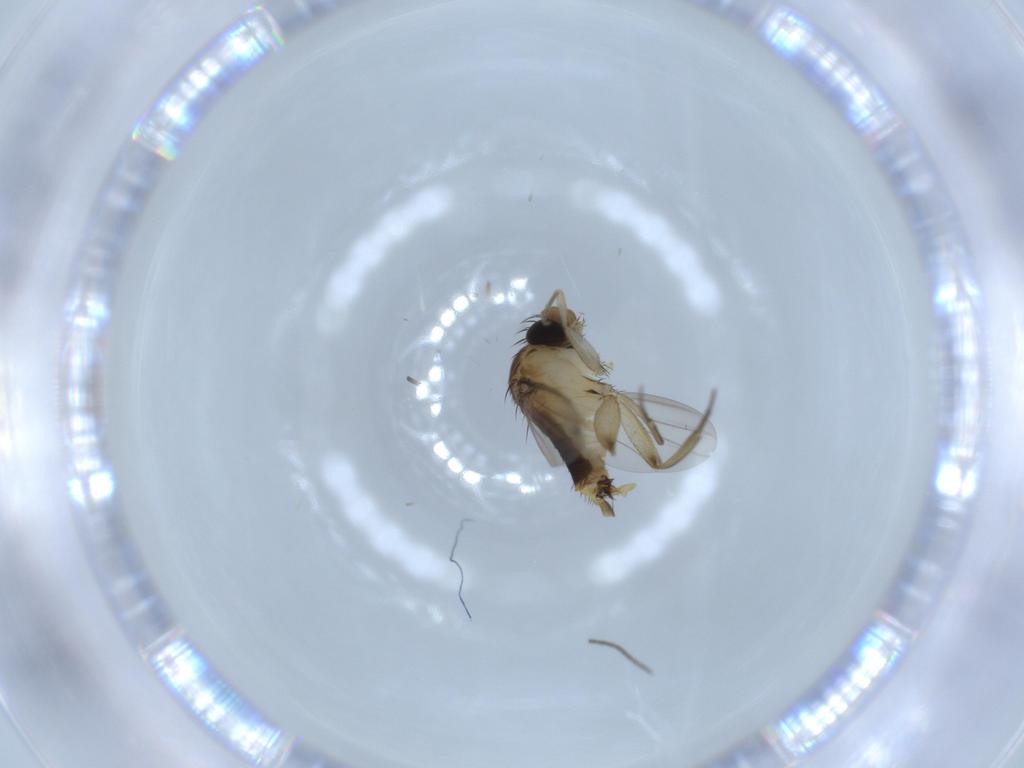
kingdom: Animalia
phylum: Arthropoda
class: Insecta
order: Diptera
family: Phoridae
